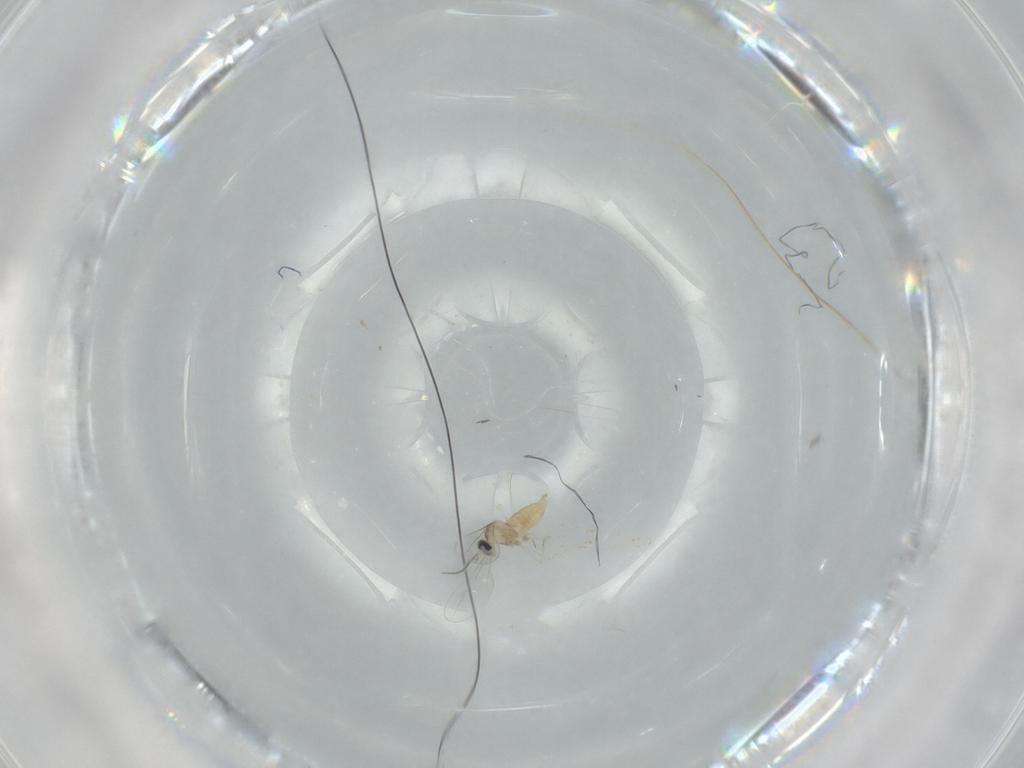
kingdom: Animalia
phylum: Arthropoda
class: Insecta
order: Diptera
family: Cecidomyiidae
